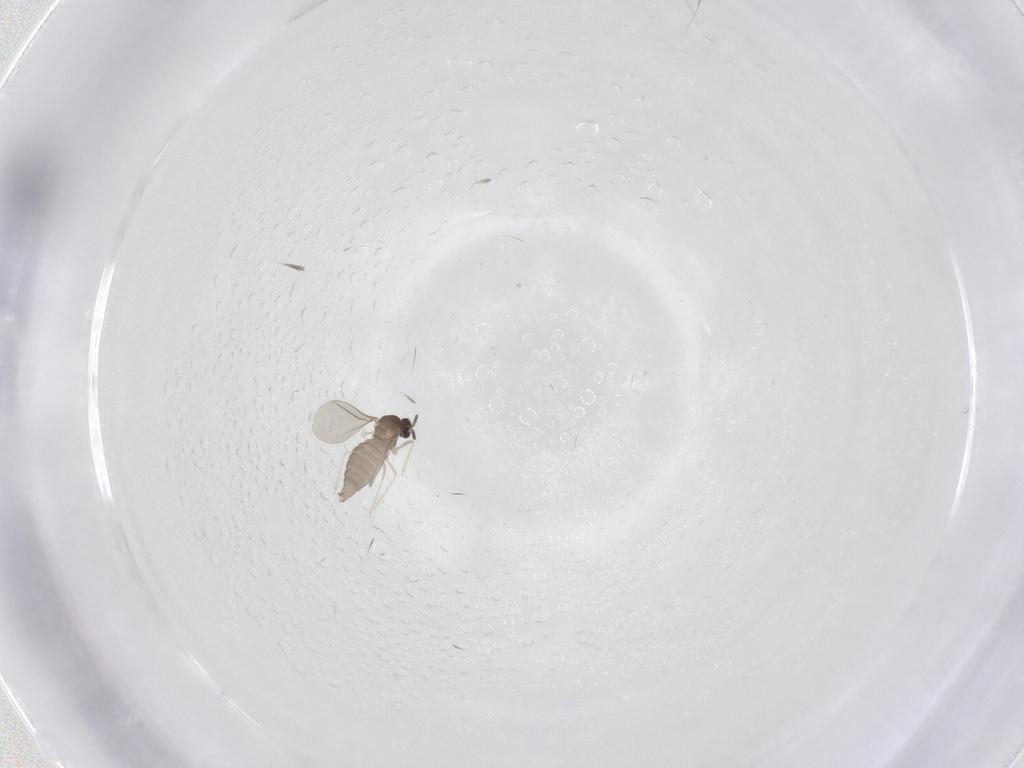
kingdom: Animalia
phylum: Arthropoda
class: Insecta
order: Diptera
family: Cecidomyiidae
